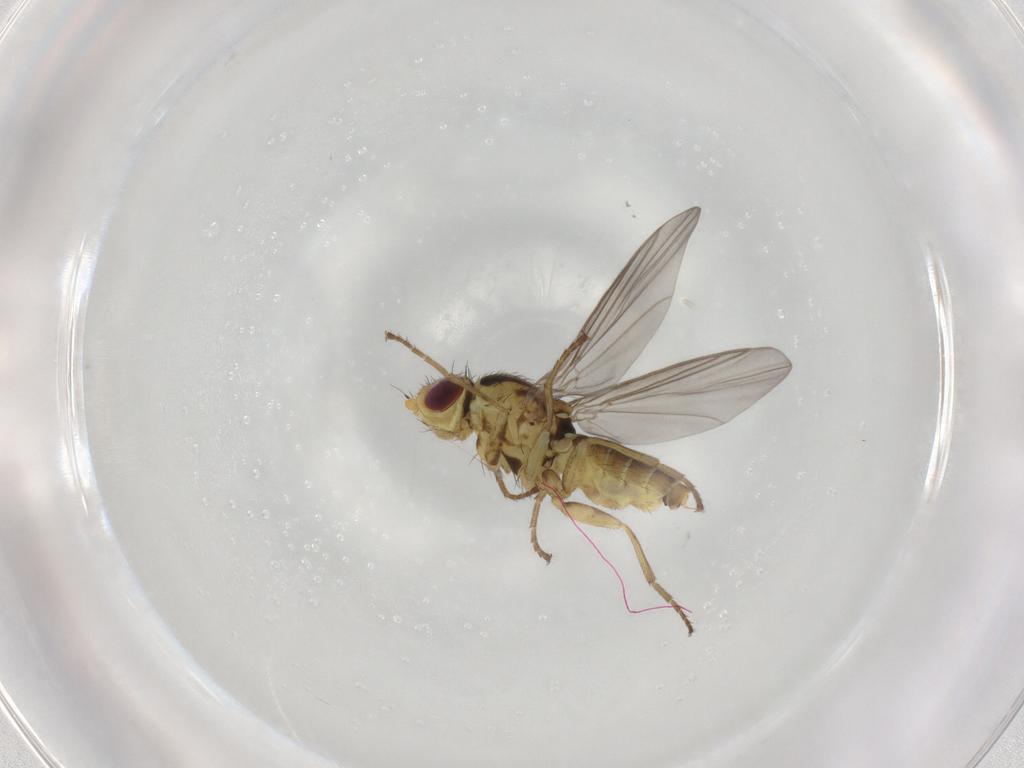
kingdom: Animalia
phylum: Arthropoda
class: Insecta
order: Diptera
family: Agromyzidae
